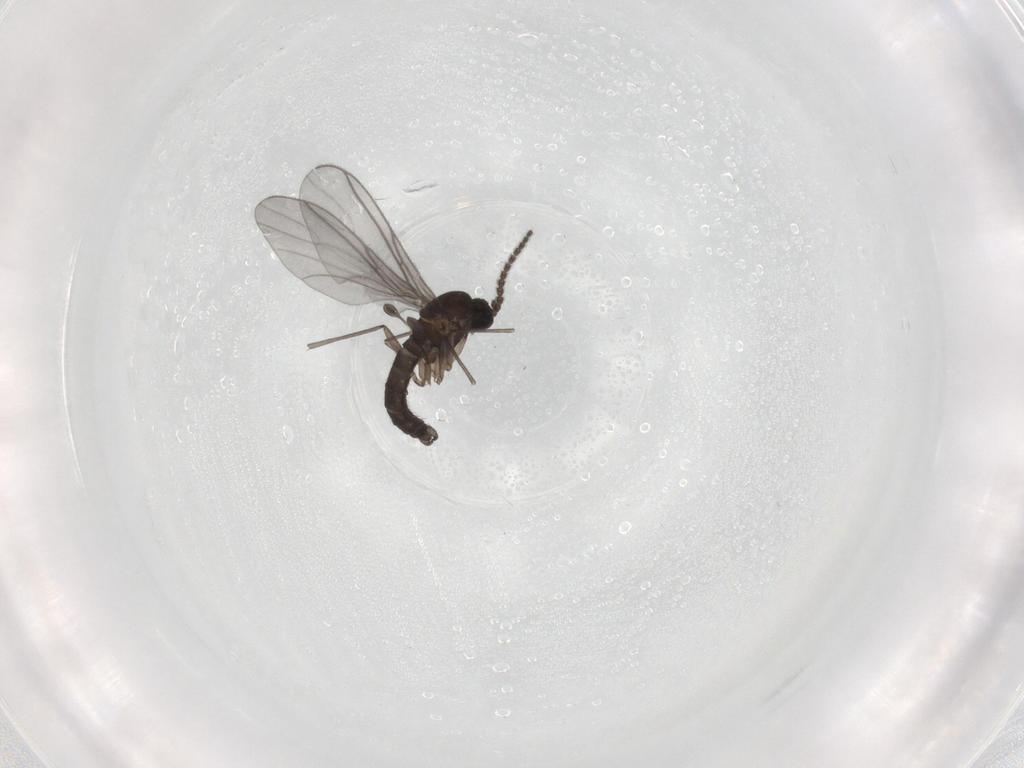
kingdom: Animalia
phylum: Arthropoda
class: Insecta
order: Diptera
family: Sciaridae
